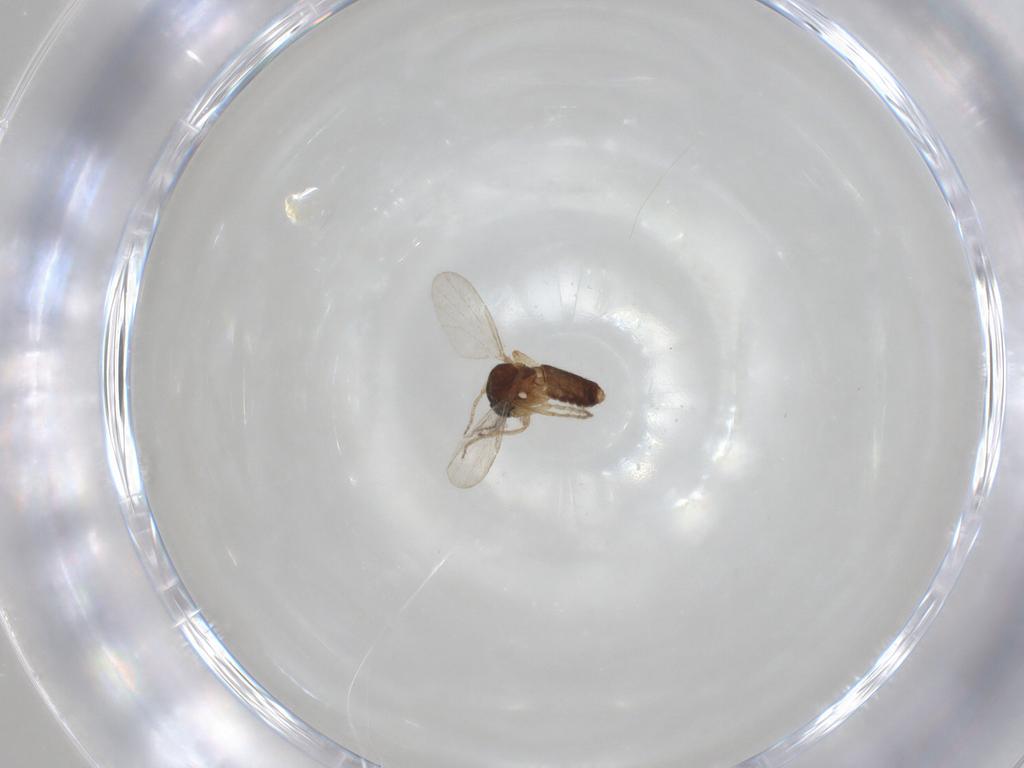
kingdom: Animalia
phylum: Arthropoda
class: Insecta
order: Diptera
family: Ceratopogonidae
